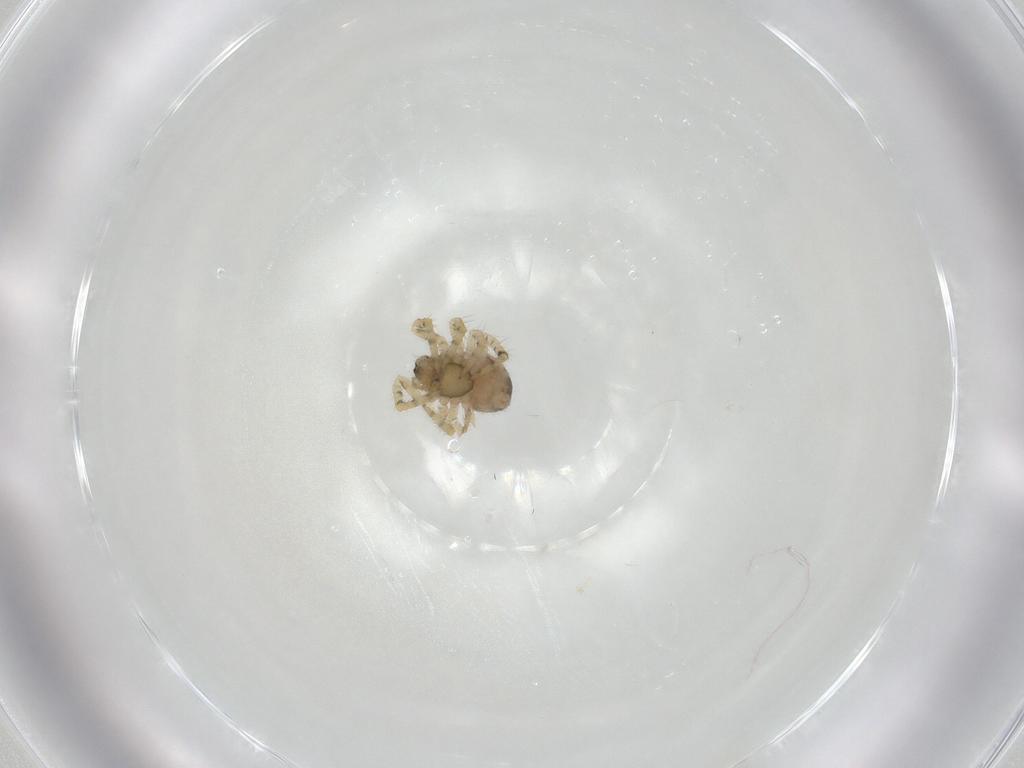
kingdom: Animalia
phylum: Arthropoda
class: Arachnida
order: Araneae
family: Theridiidae
